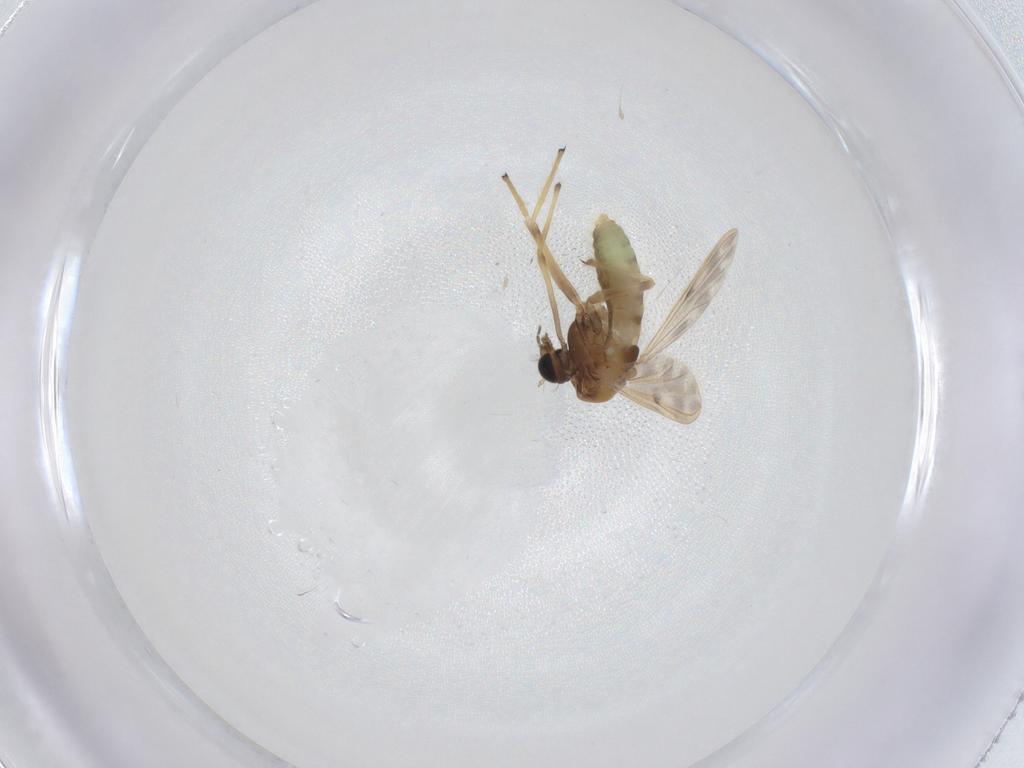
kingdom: Animalia
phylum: Arthropoda
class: Insecta
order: Diptera
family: Chironomidae
